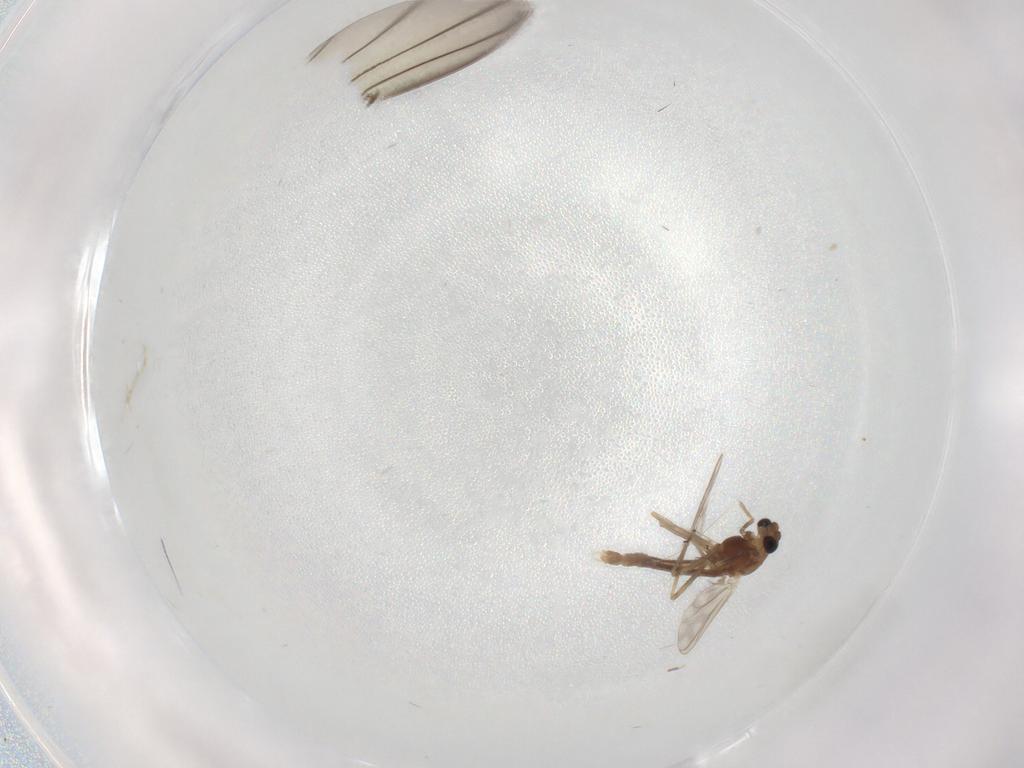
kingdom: Animalia
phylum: Arthropoda
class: Insecta
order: Diptera
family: Chironomidae
